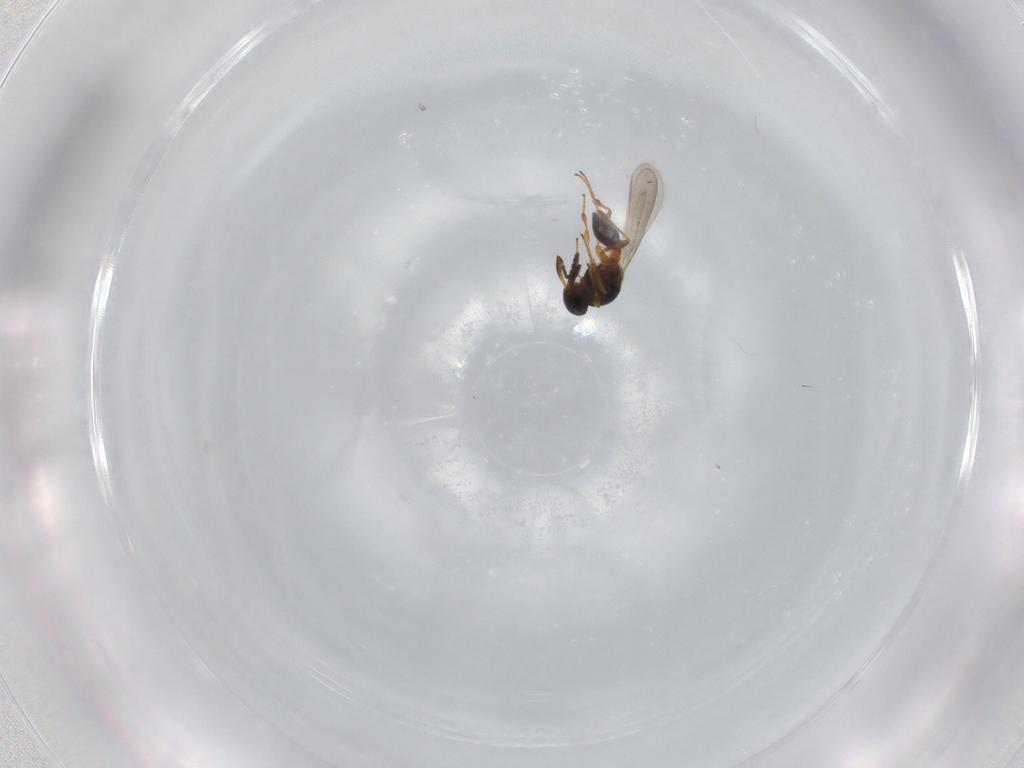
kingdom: Animalia
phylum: Arthropoda
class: Insecta
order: Hymenoptera
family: Platygastridae
